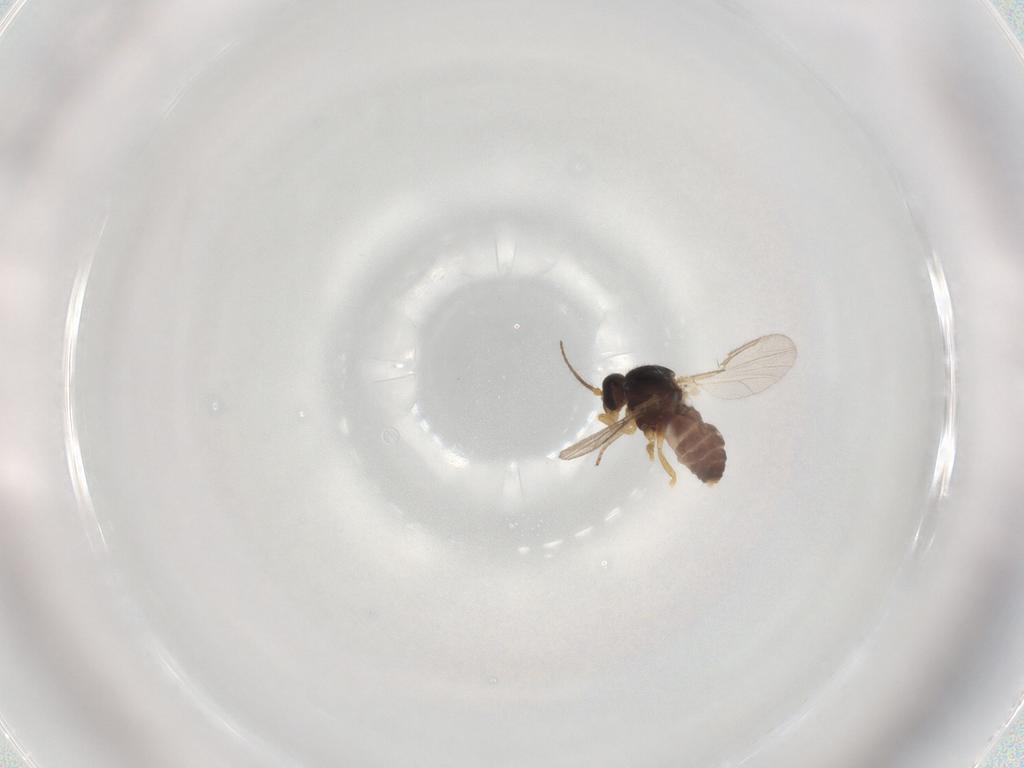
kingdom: Animalia
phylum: Arthropoda
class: Insecta
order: Diptera
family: Ceratopogonidae
